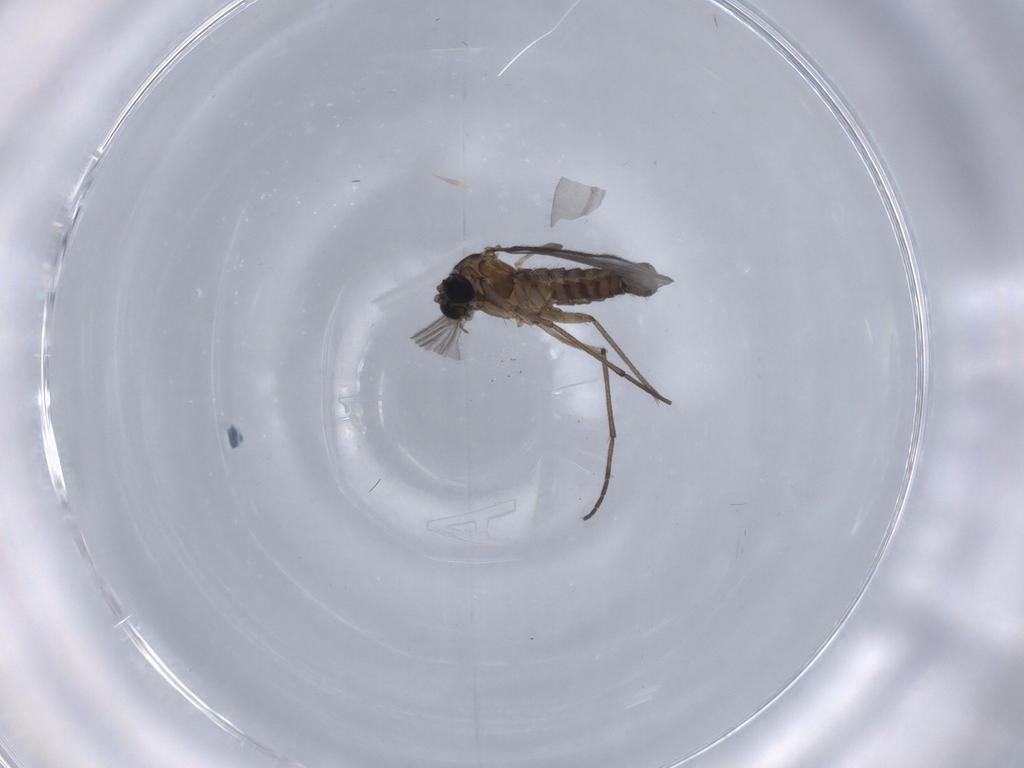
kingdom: Animalia
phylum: Arthropoda
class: Insecta
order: Diptera
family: Sciaridae
